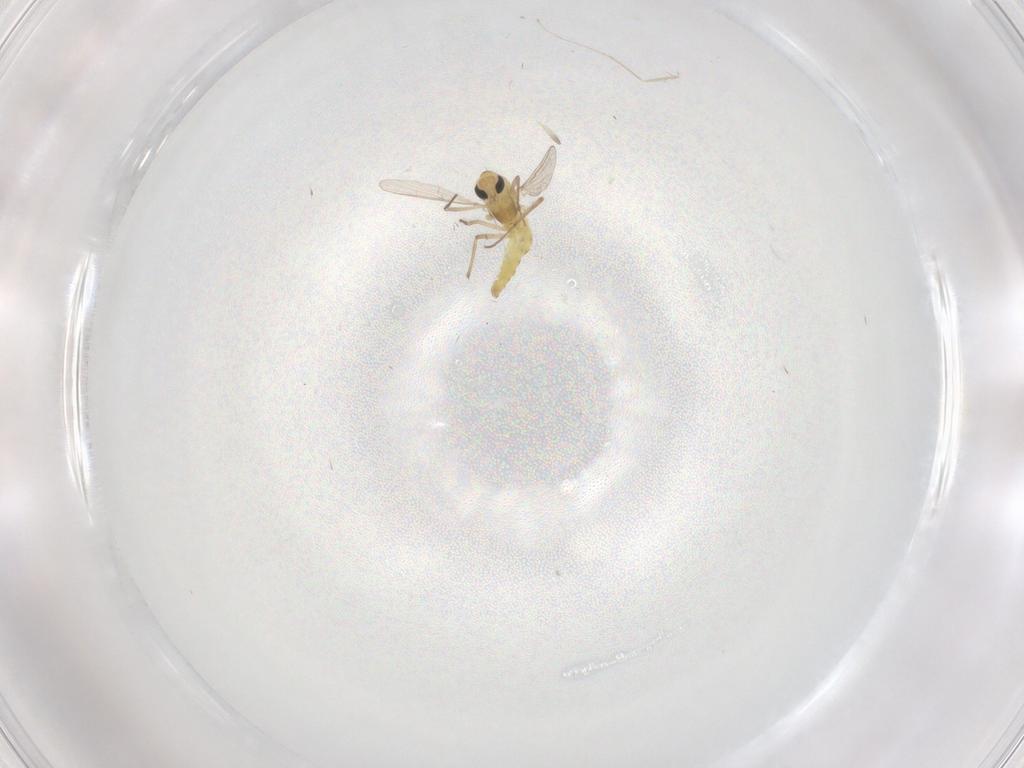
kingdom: Animalia
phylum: Arthropoda
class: Insecta
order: Diptera
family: Chironomidae
